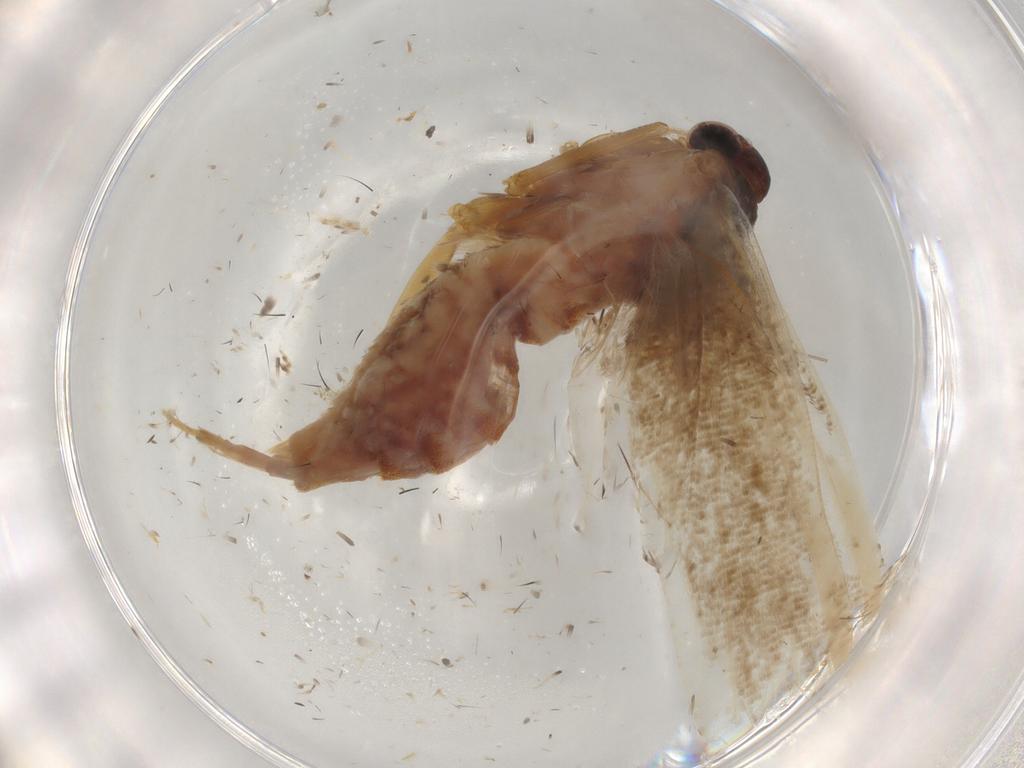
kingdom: Animalia
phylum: Arthropoda
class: Insecta
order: Lepidoptera
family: Blastobasidae
